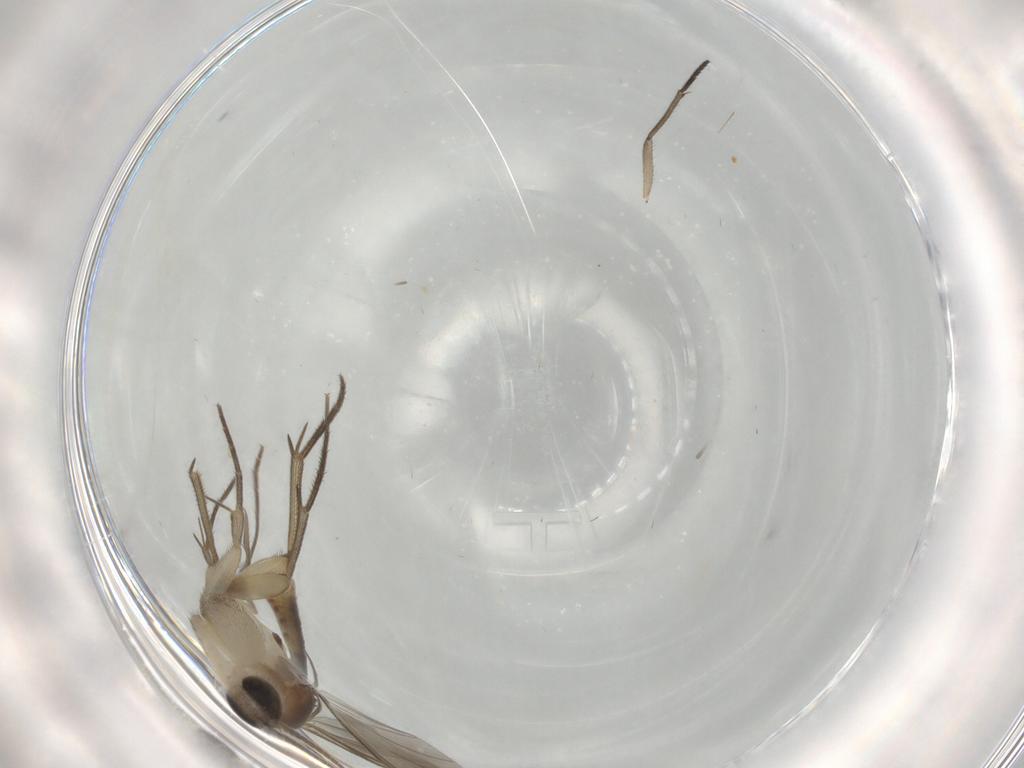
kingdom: Animalia
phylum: Arthropoda
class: Insecta
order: Diptera
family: Mycetophilidae
